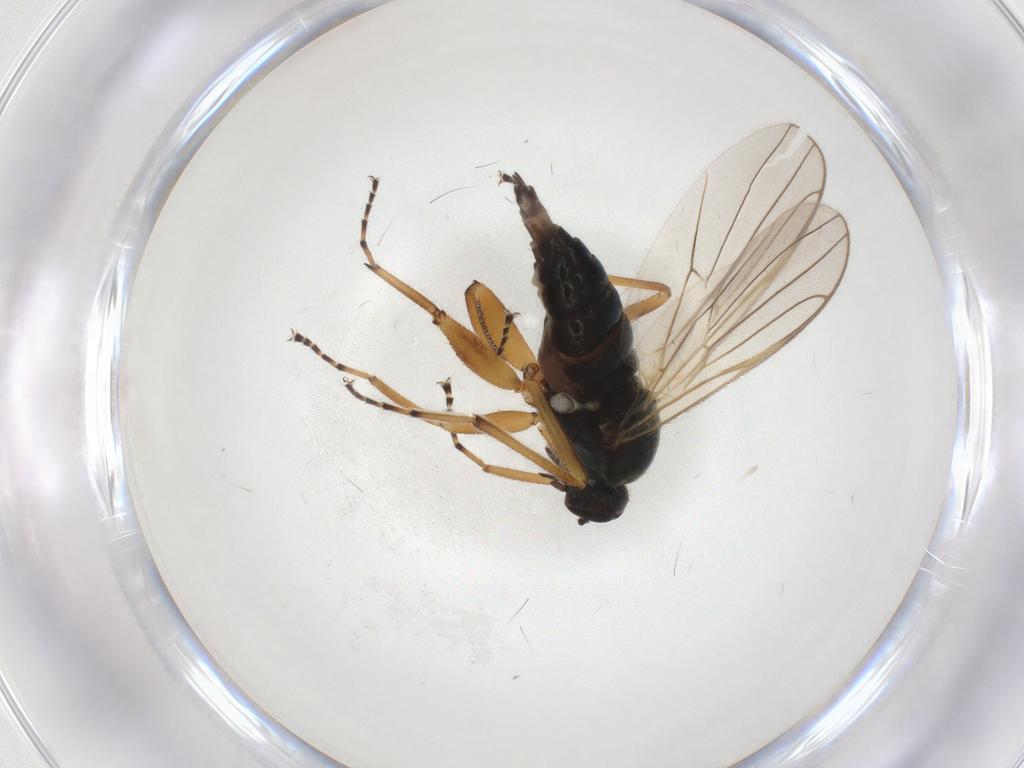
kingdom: Animalia
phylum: Arthropoda
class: Insecta
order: Diptera
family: Hybotidae
